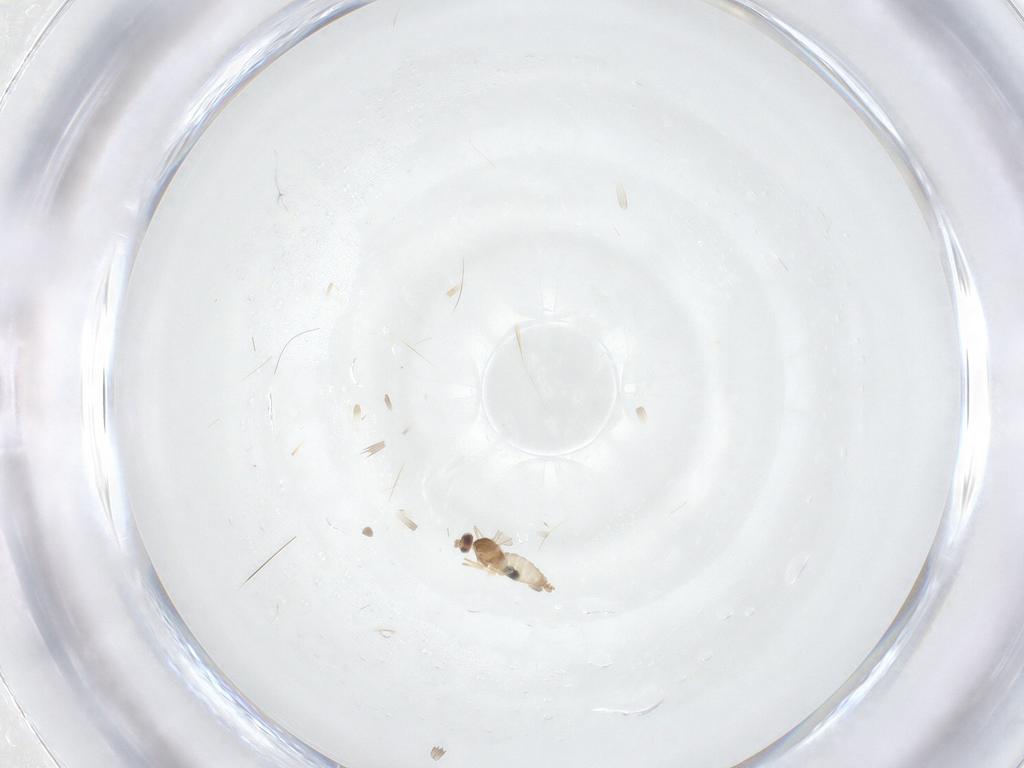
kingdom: Animalia
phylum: Arthropoda
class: Insecta
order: Diptera
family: Cecidomyiidae
